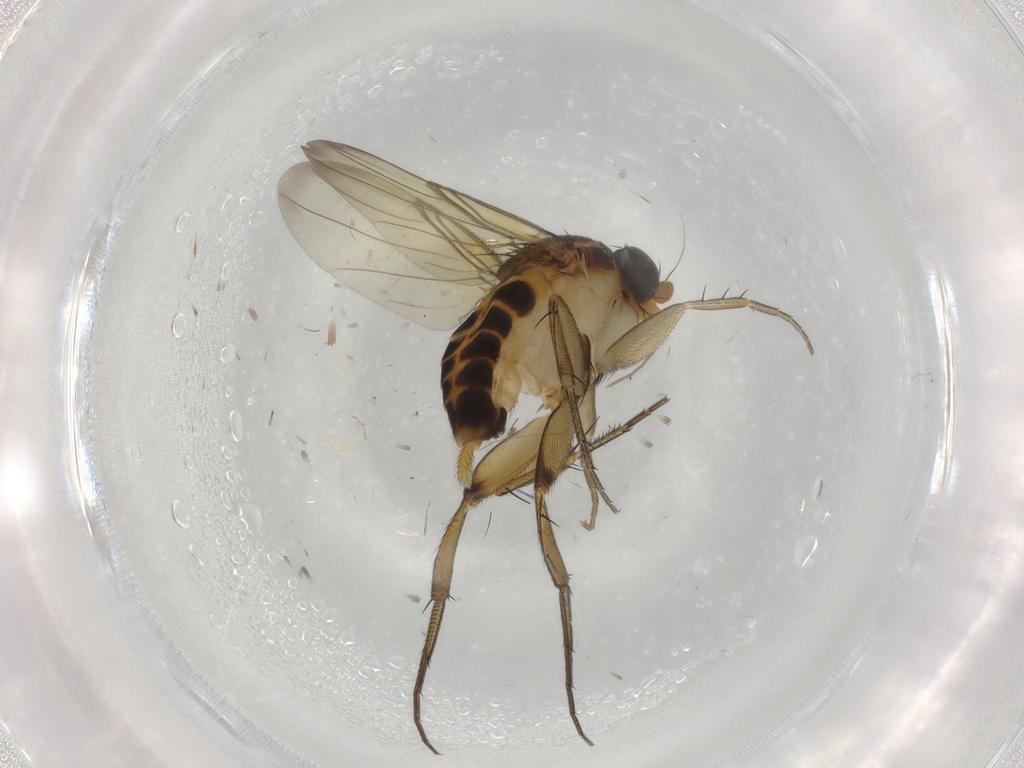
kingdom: Animalia
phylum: Arthropoda
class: Insecta
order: Diptera
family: Phoridae
